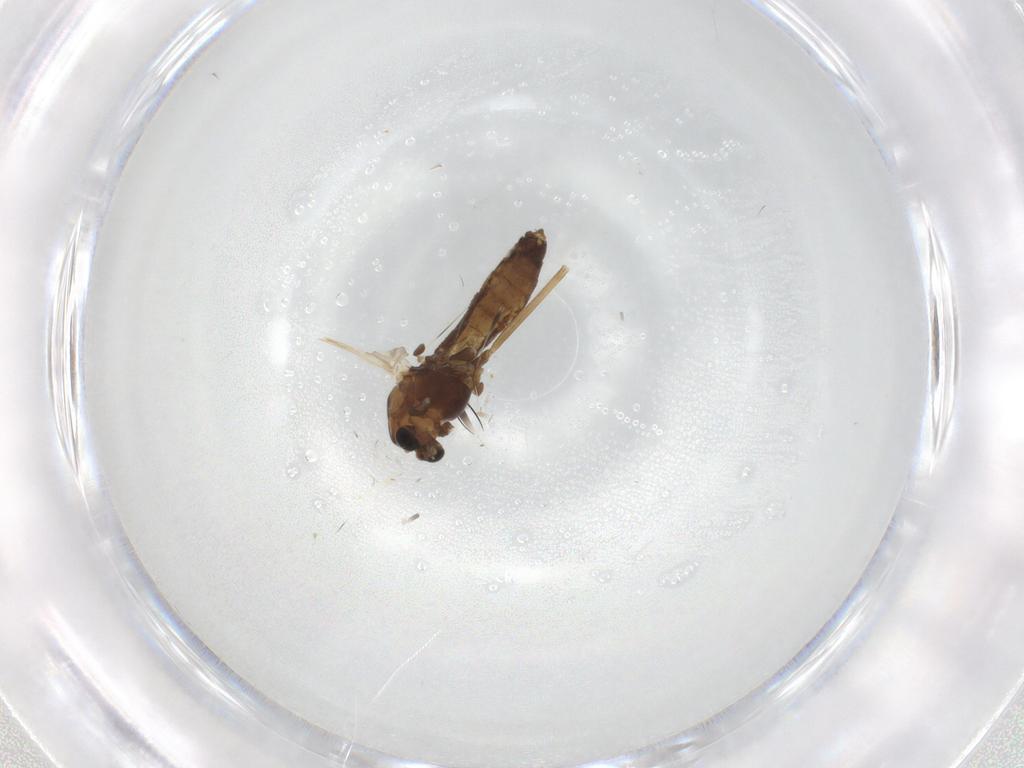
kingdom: Animalia
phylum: Arthropoda
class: Insecta
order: Diptera
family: Chironomidae
